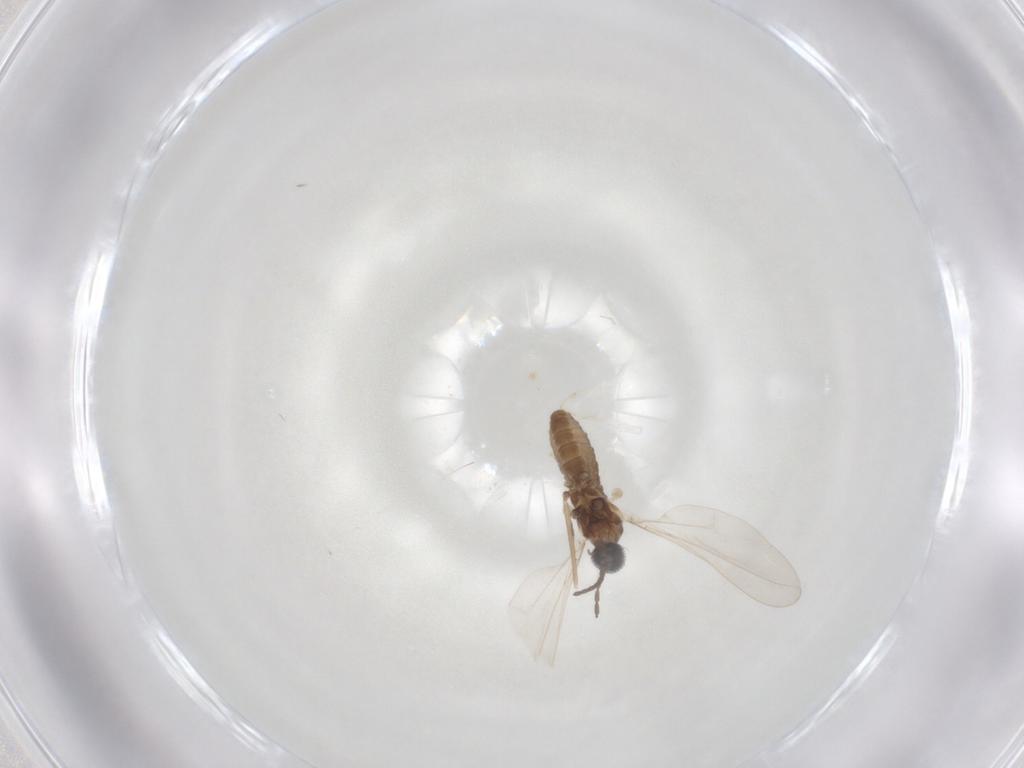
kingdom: Animalia
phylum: Arthropoda
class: Insecta
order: Diptera
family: Cecidomyiidae
